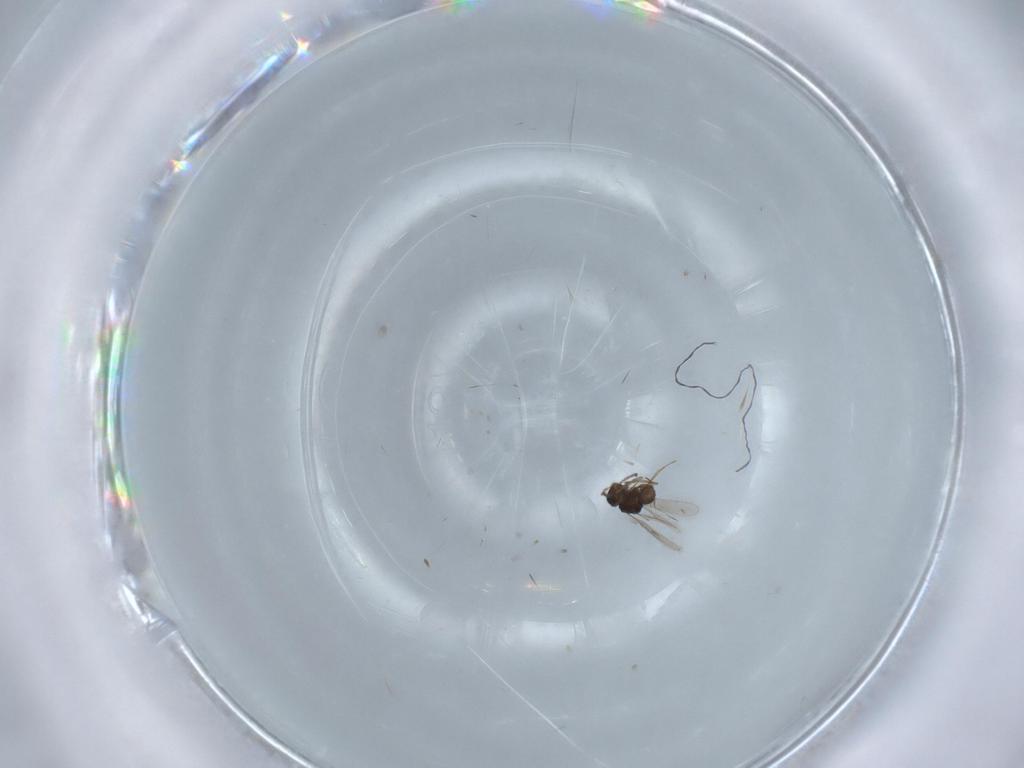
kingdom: Animalia
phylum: Arthropoda
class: Insecta
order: Hymenoptera
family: Scelionidae
